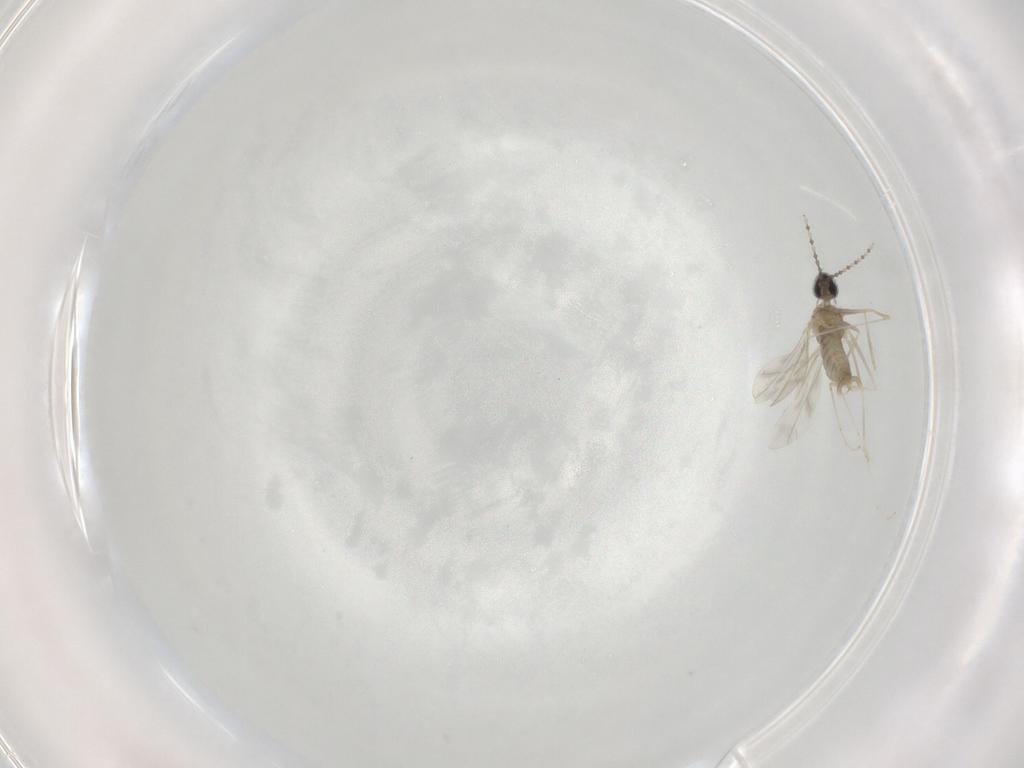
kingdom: Animalia
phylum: Arthropoda
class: Insecta
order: Diptera
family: Cecidomyiidae
